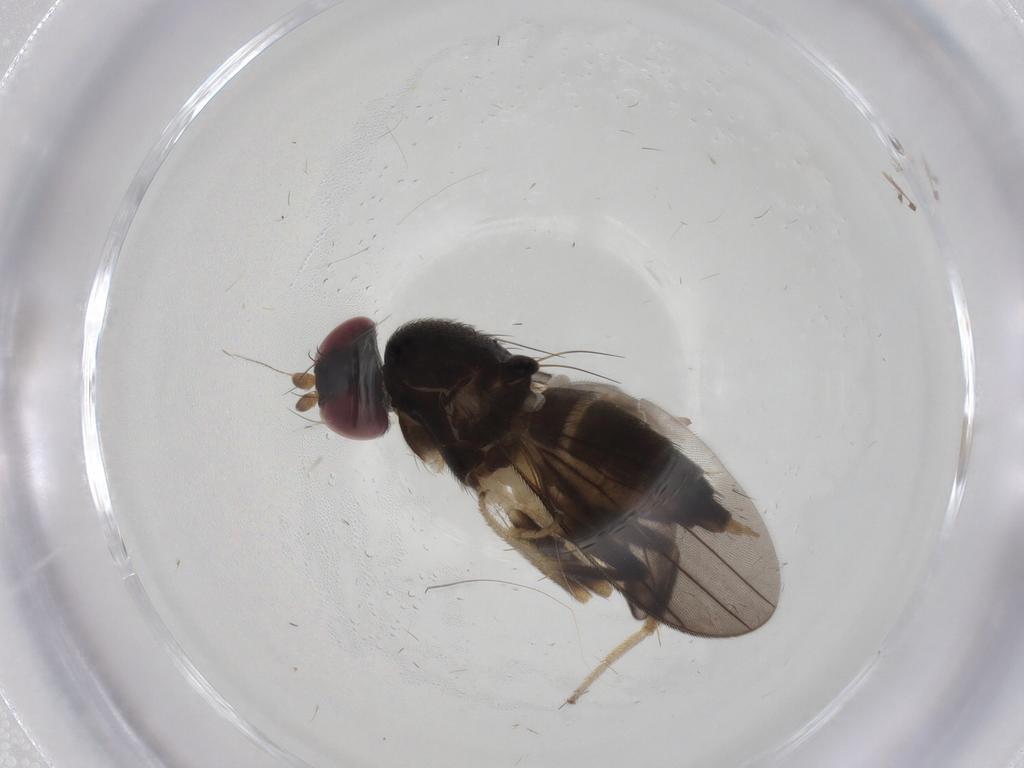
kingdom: Animalia
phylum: Arthropoda
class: Insecta
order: Diptera
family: Clusiidae
